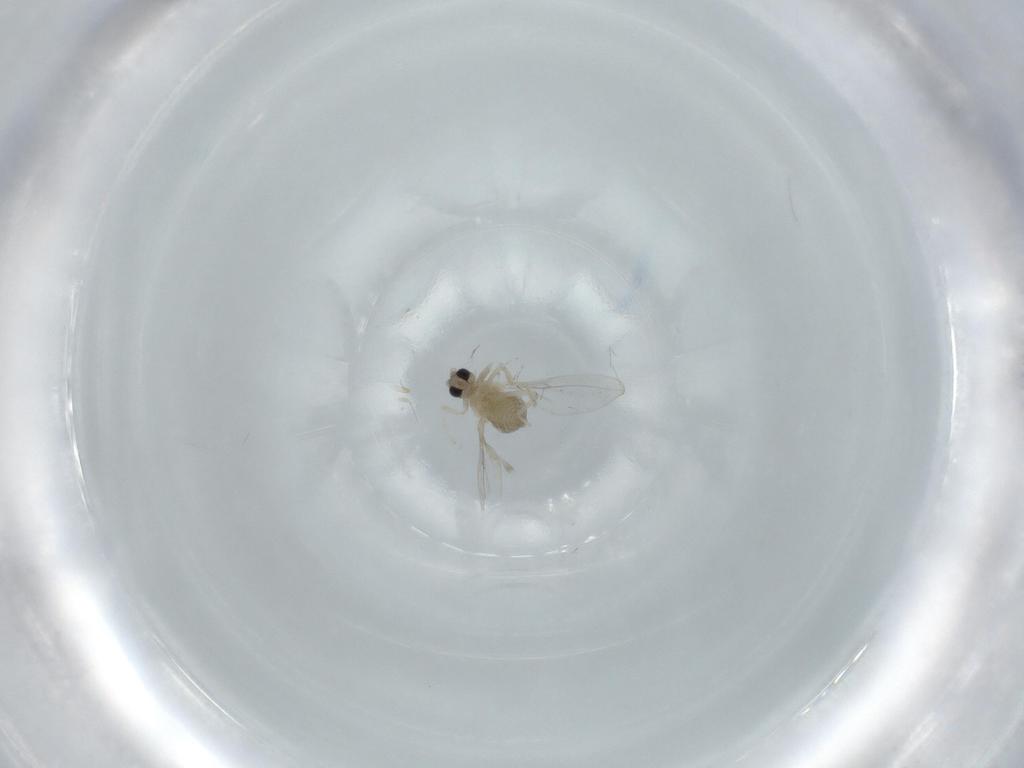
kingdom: Animalia
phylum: Arthropoda
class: Insecta
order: Diptera
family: Cecidomyiidae
